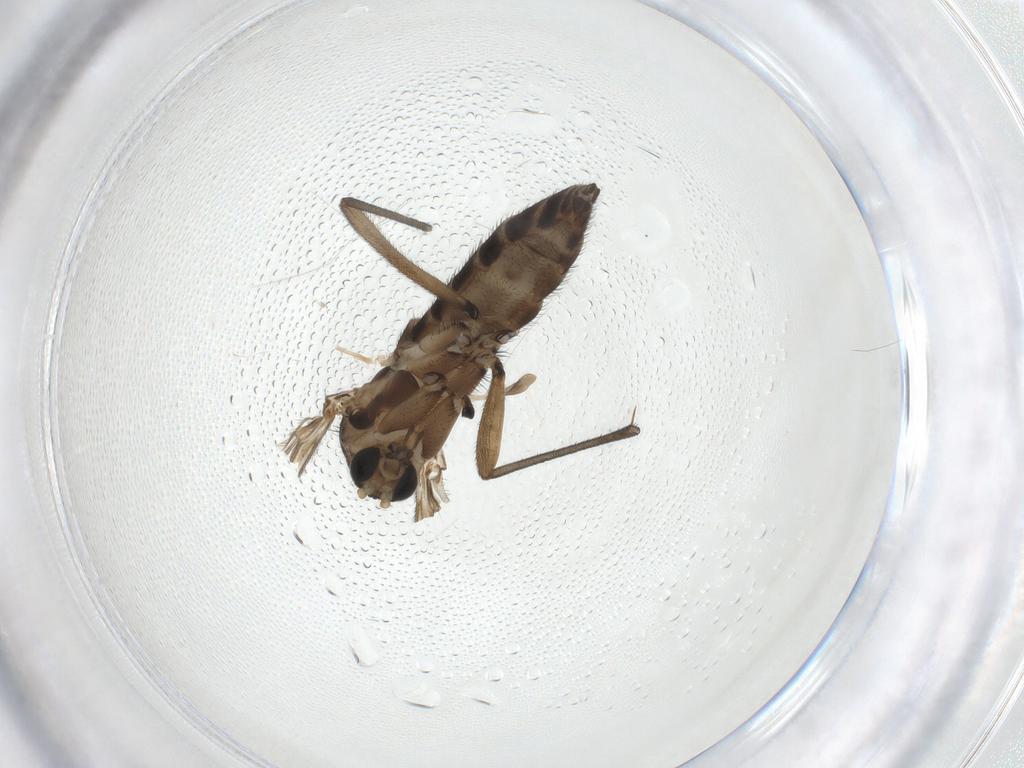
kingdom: Animalia
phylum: Arthropoda
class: Insecta
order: Diptera
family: Sciaridae
